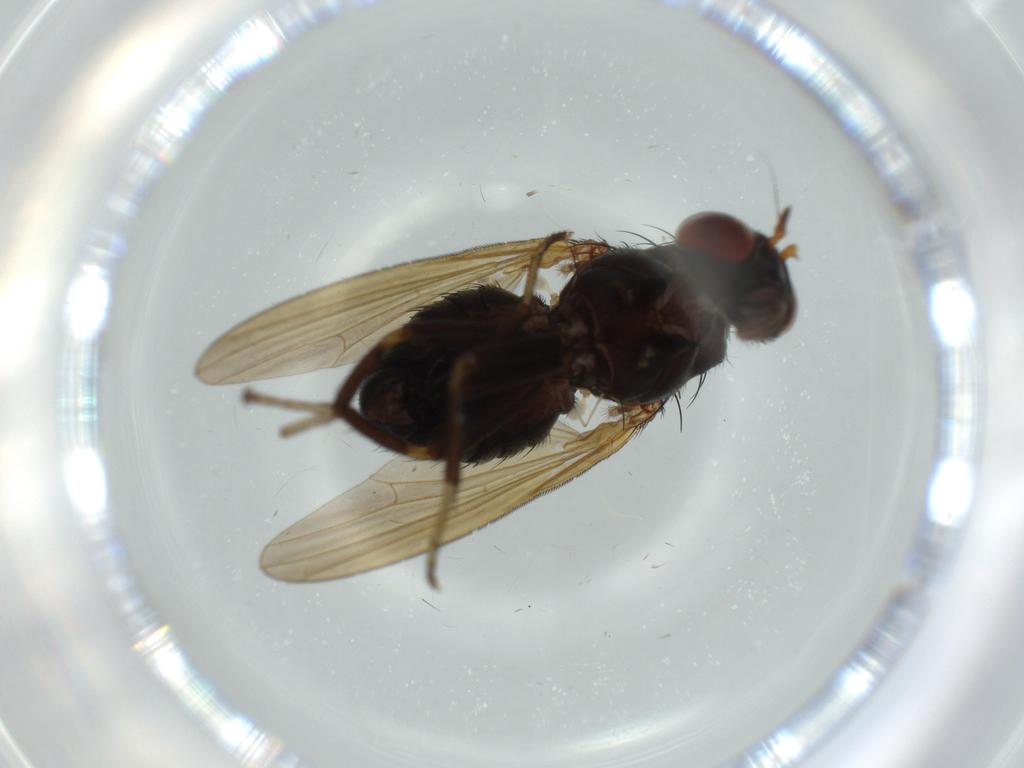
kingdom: Animalia
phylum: Arthropoda
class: Insecta
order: Diptera
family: Lauxaniidae
